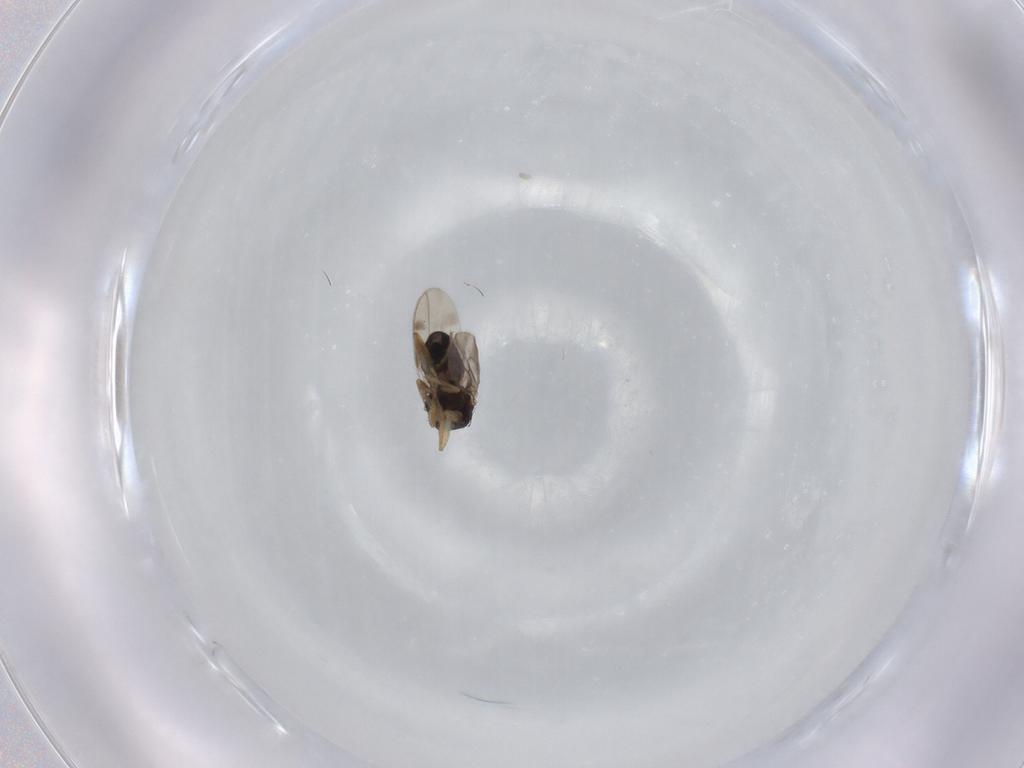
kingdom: Animalia
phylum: Arthropoda
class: Insecta
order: Diptera
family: Sphaeroceridae
